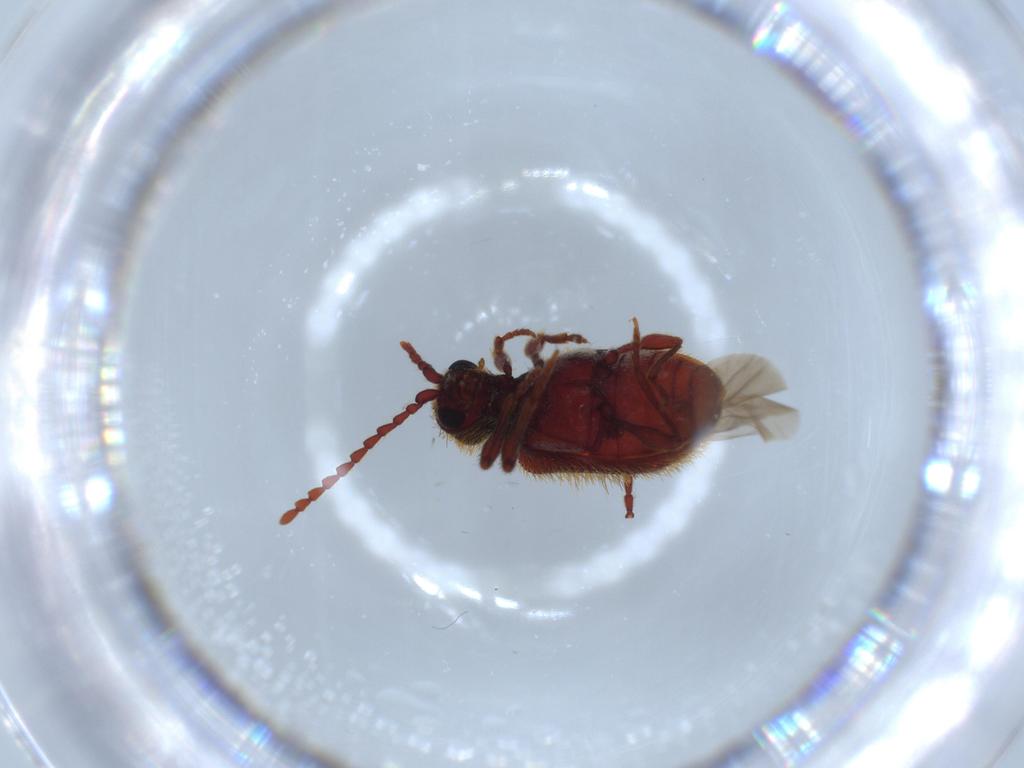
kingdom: Animalia
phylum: Arthropoda
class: Insecta
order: Coleoptera
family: Ptinidae
